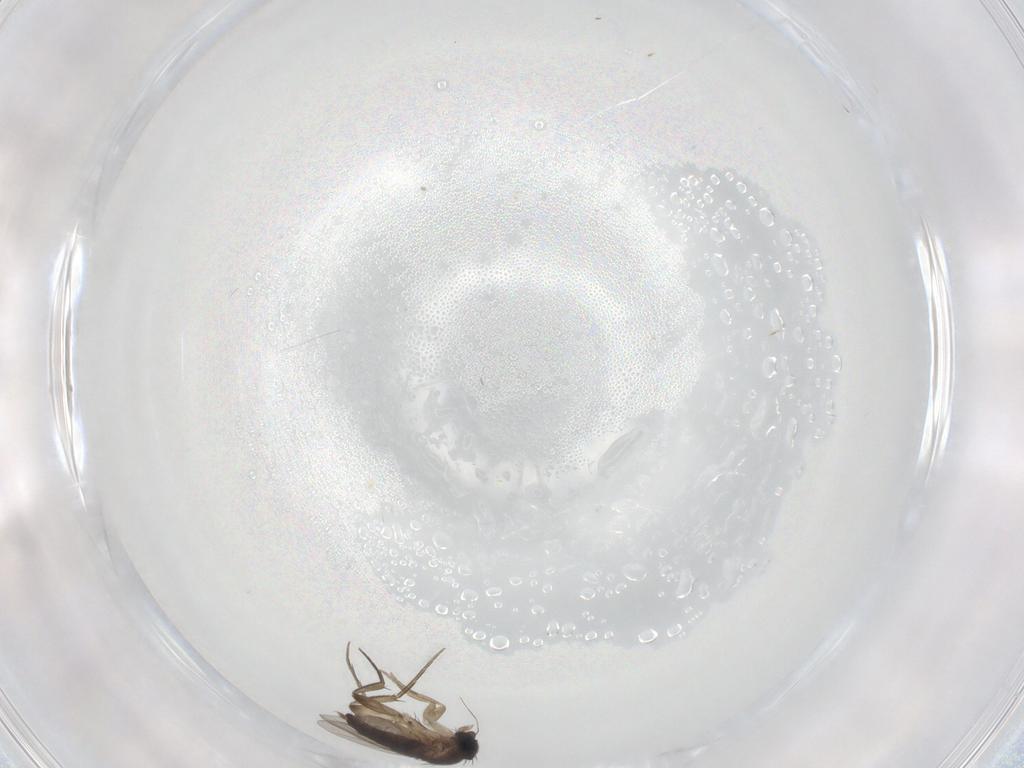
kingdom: Animalia
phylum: Arthropoda
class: Insecta
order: Diptera
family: Phoridae
